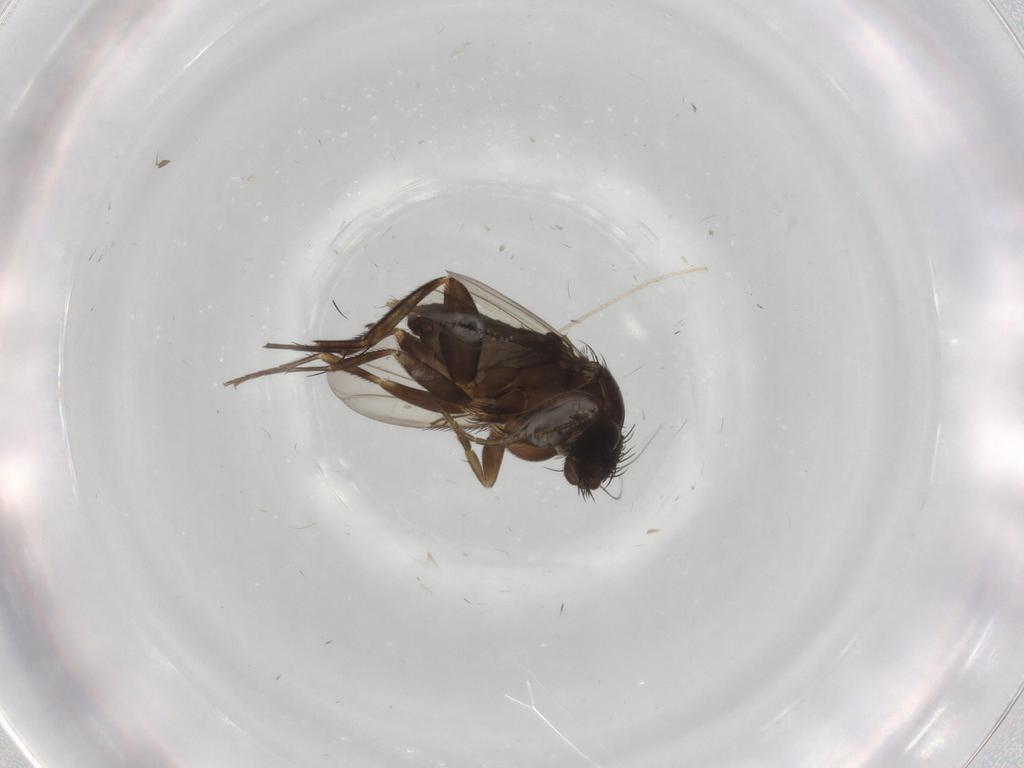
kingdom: Animalia
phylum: Arthropoda
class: Insecta
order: Diptera
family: Phoridae
